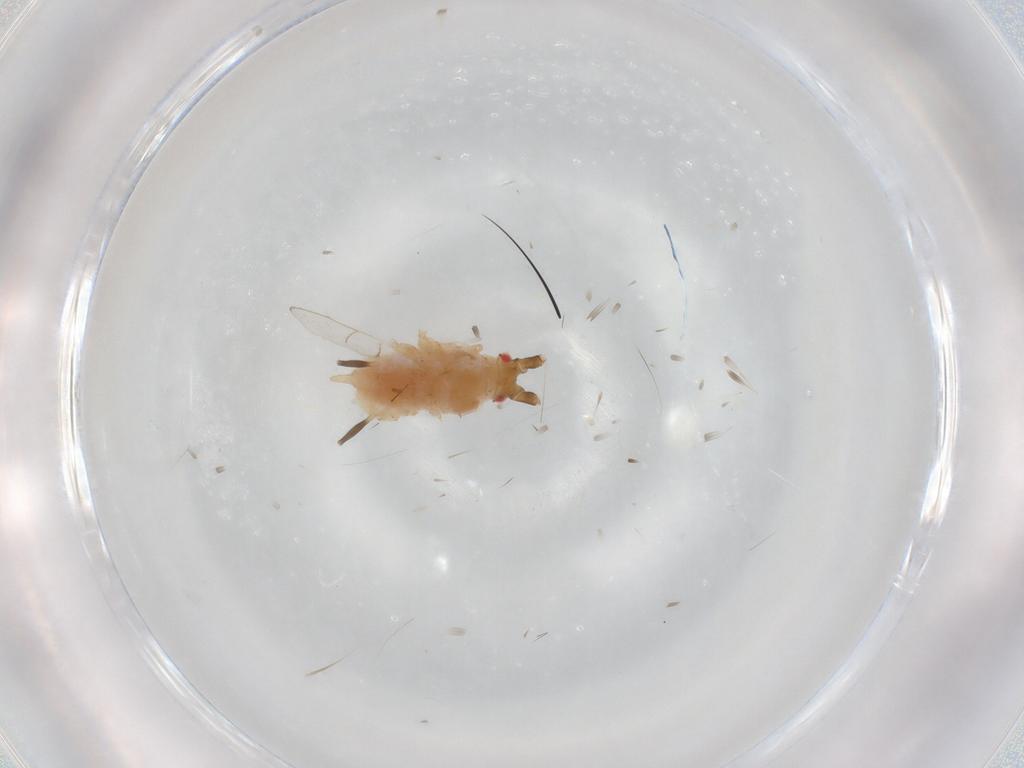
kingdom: Animalia
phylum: Arthropoda
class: Insecta
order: Hemiptera
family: Aphididae
